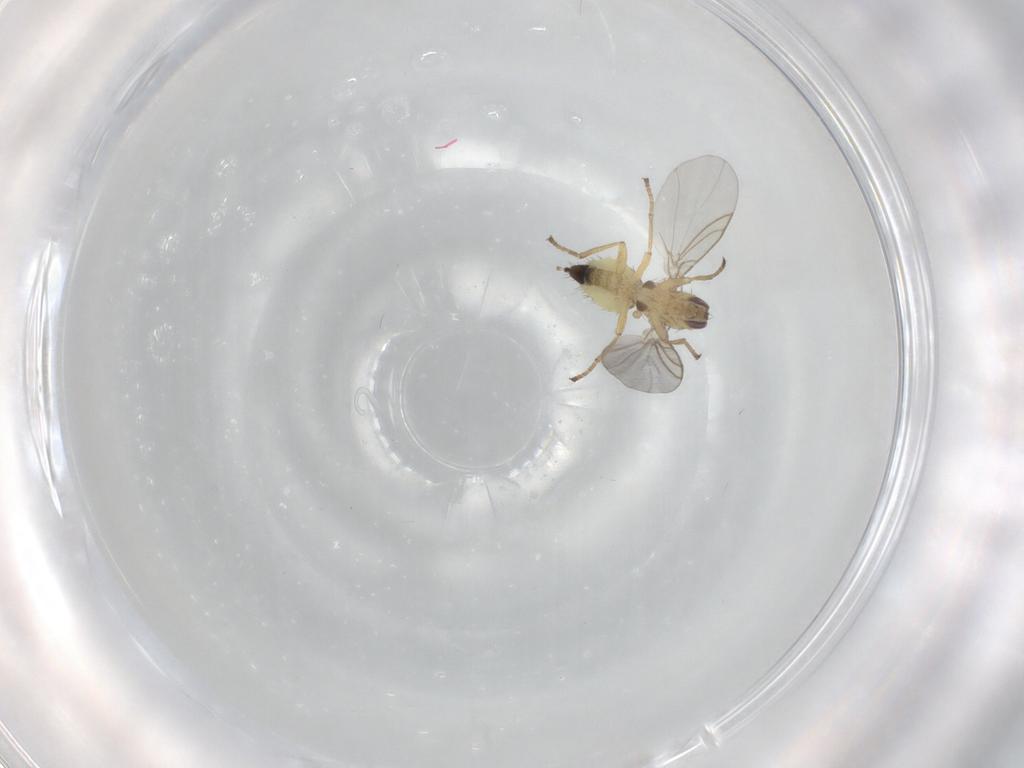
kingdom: Animalia
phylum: Arthropoda
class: Insecta
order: Diptera
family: Agromyzidae
